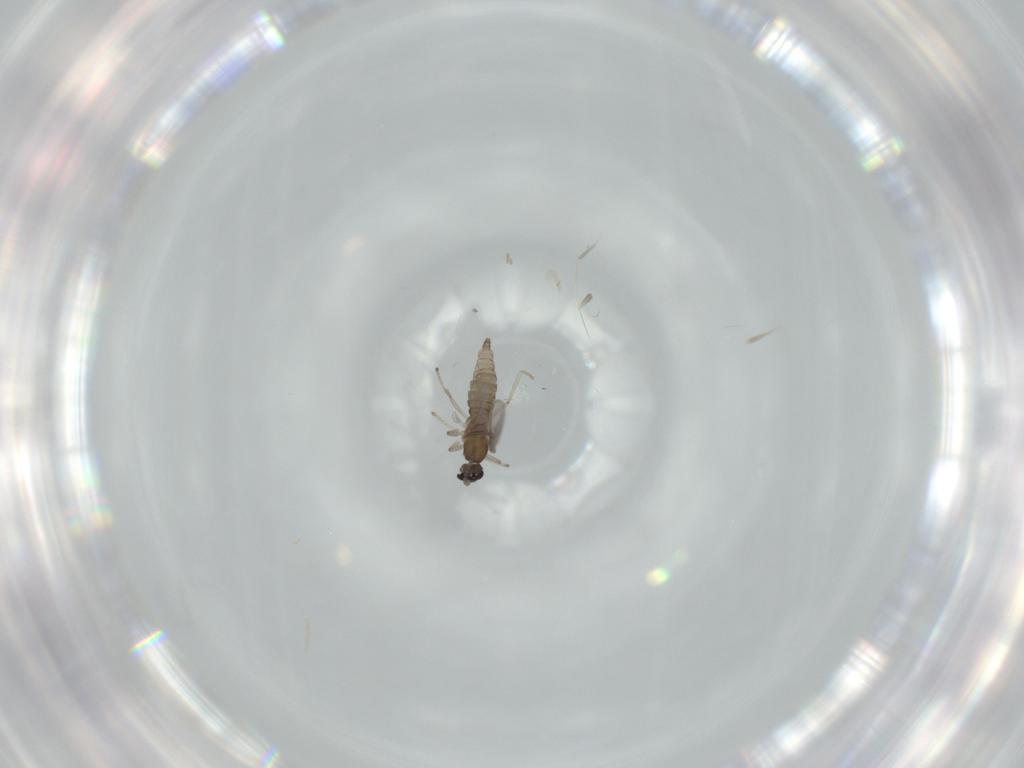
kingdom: Animalia
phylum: Arthropoda
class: Insecta
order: Diptera
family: Cecidomyiidae
